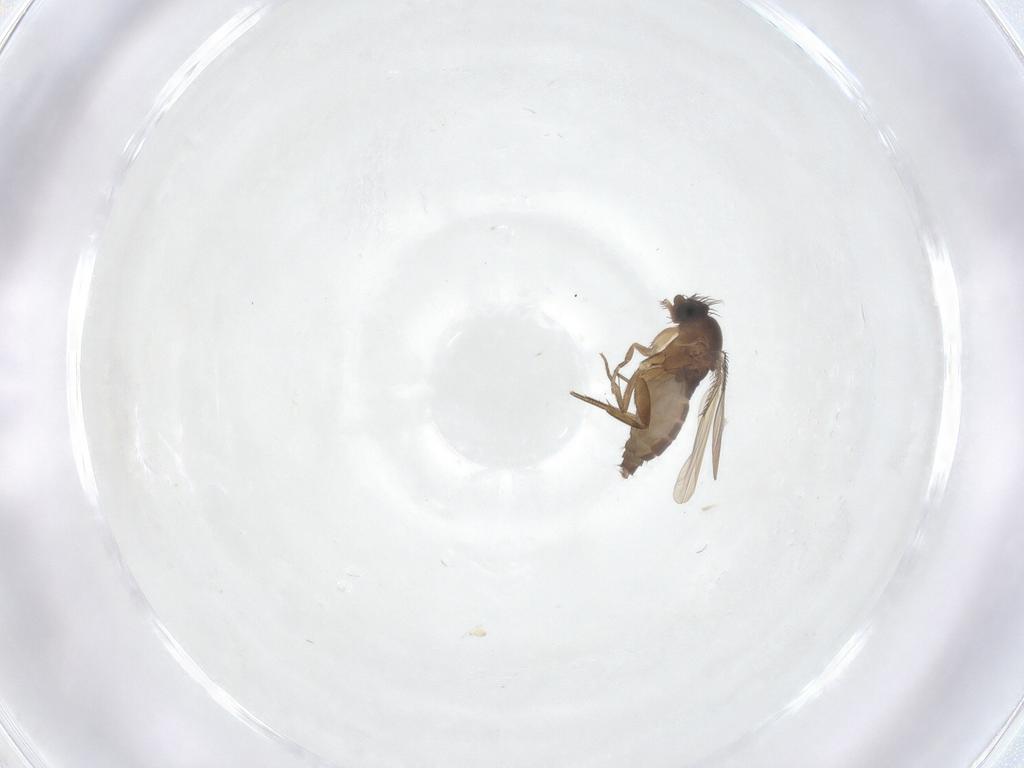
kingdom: Animalia
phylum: Arthropoda
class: Insecta
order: Diptera
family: Phoridae
